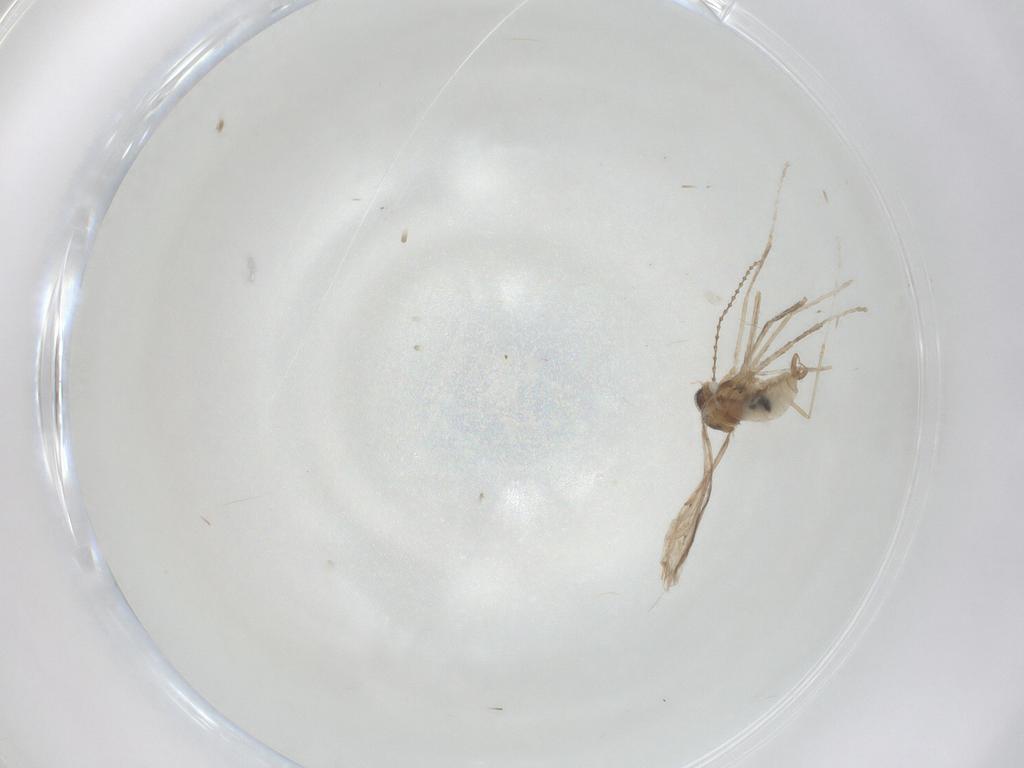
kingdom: Animalia
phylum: Arthropoda
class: Insecta
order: Diptera
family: Cecidomyiidae
